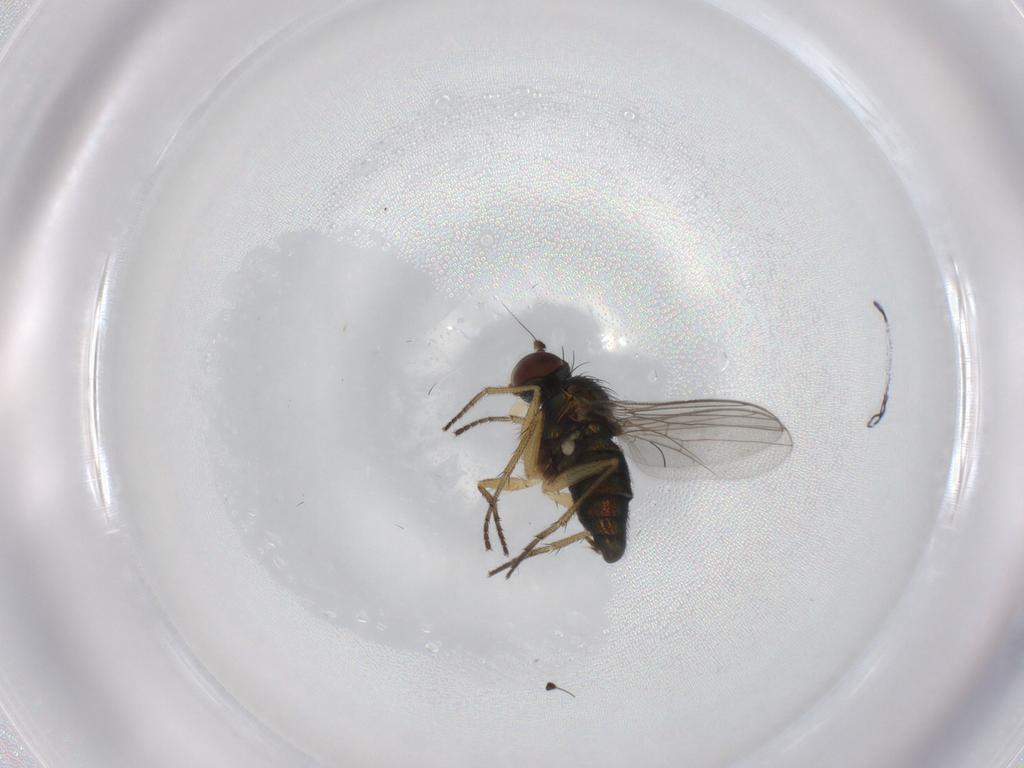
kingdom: Animalia
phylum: Arthropoda
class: Insecta
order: Diptera
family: Dolichopodidae
